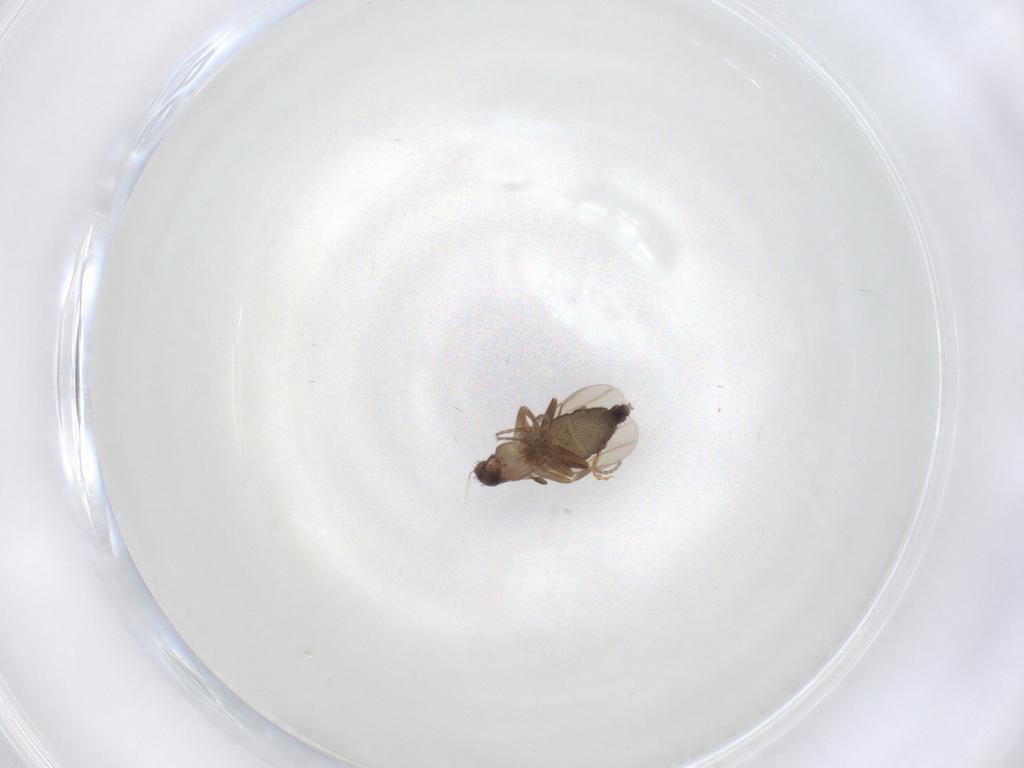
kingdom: Animalia
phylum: Arthropoda
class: Insecta
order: Diptera
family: Phoridae
